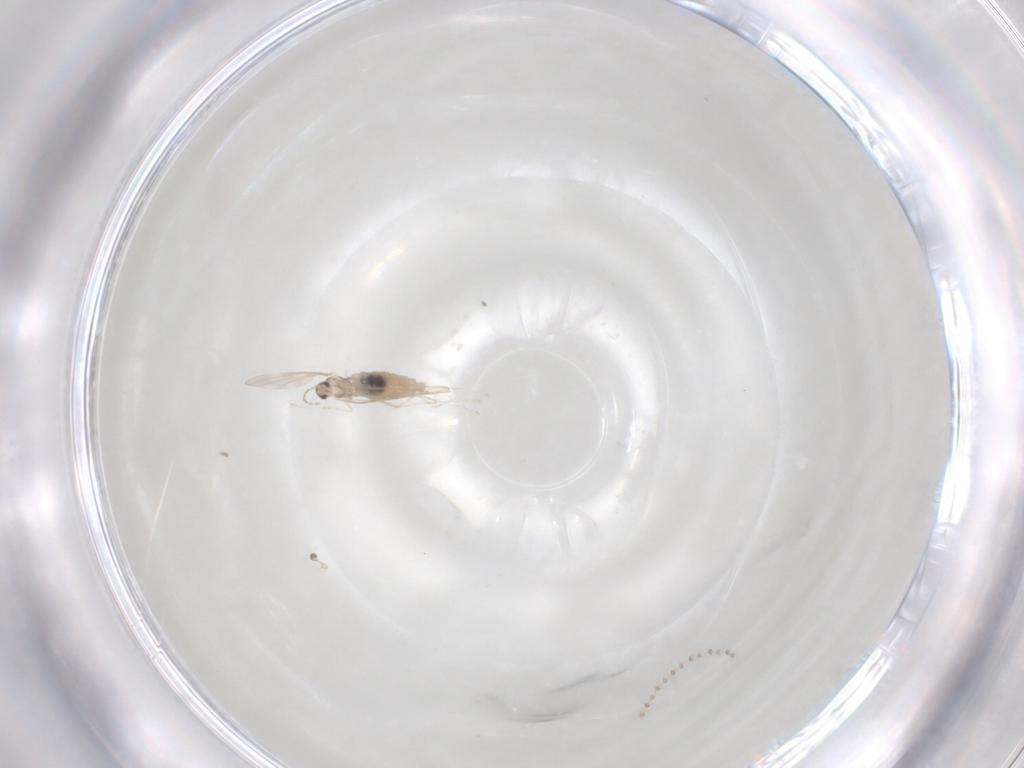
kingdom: Animalia
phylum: Arthropoda
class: Insecta
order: Diptera
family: Cecidomyiidae
